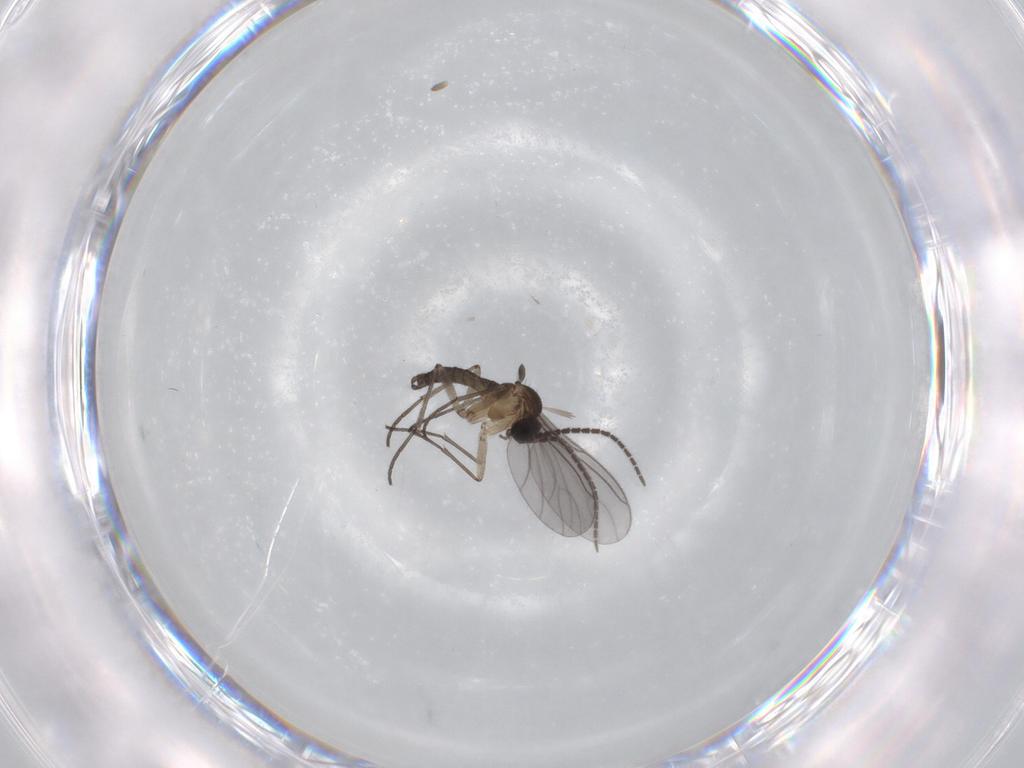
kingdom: Animalia
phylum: Arthropoda
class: Insecta
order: Diptera
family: Sciaridae
